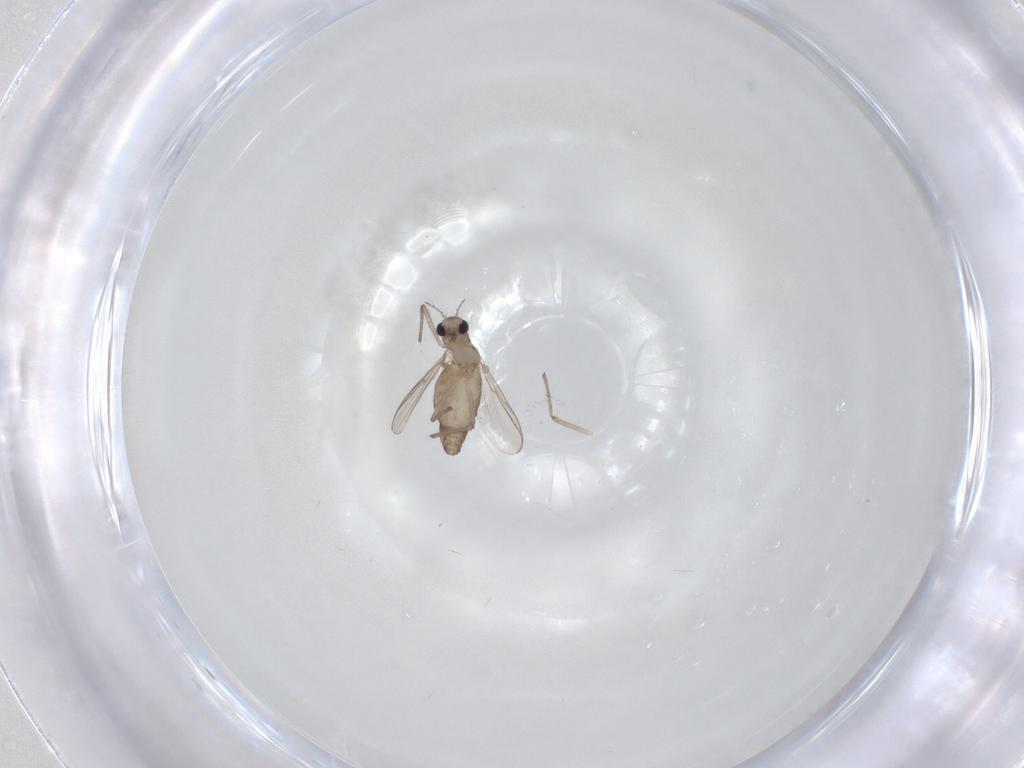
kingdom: Animalia
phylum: Arthropoda
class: Insecta
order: Diptera
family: Chironomidae
